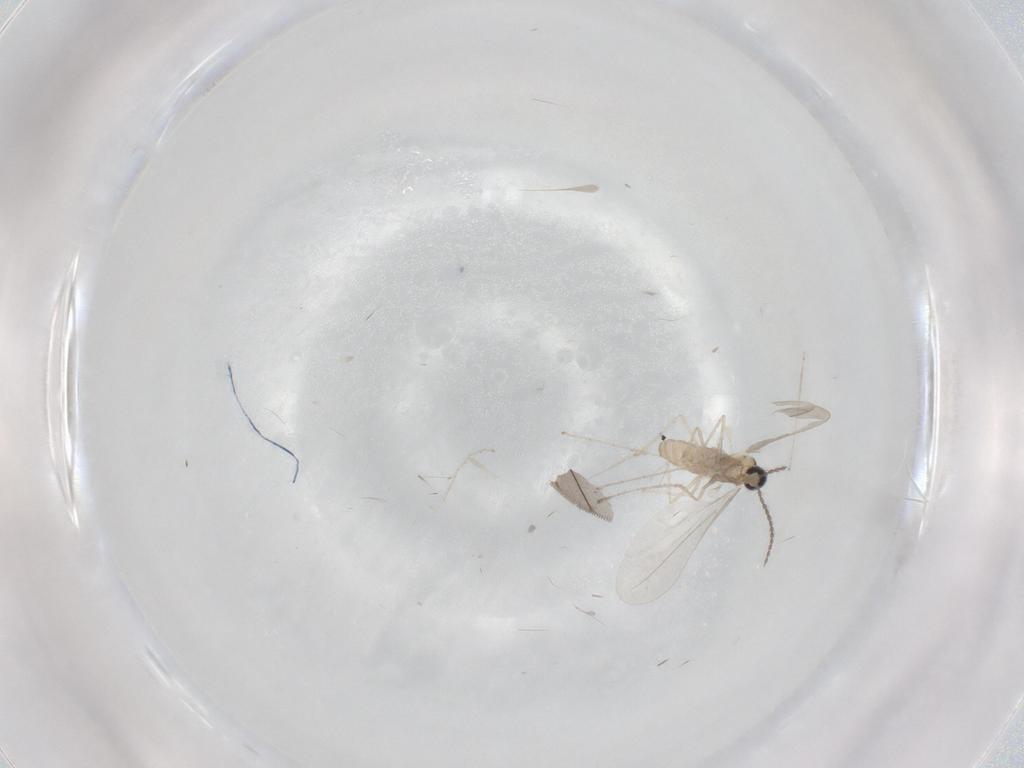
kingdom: Animalia
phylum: Arthropoda
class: Insecta
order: Diptera
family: Cecidomyiidae
